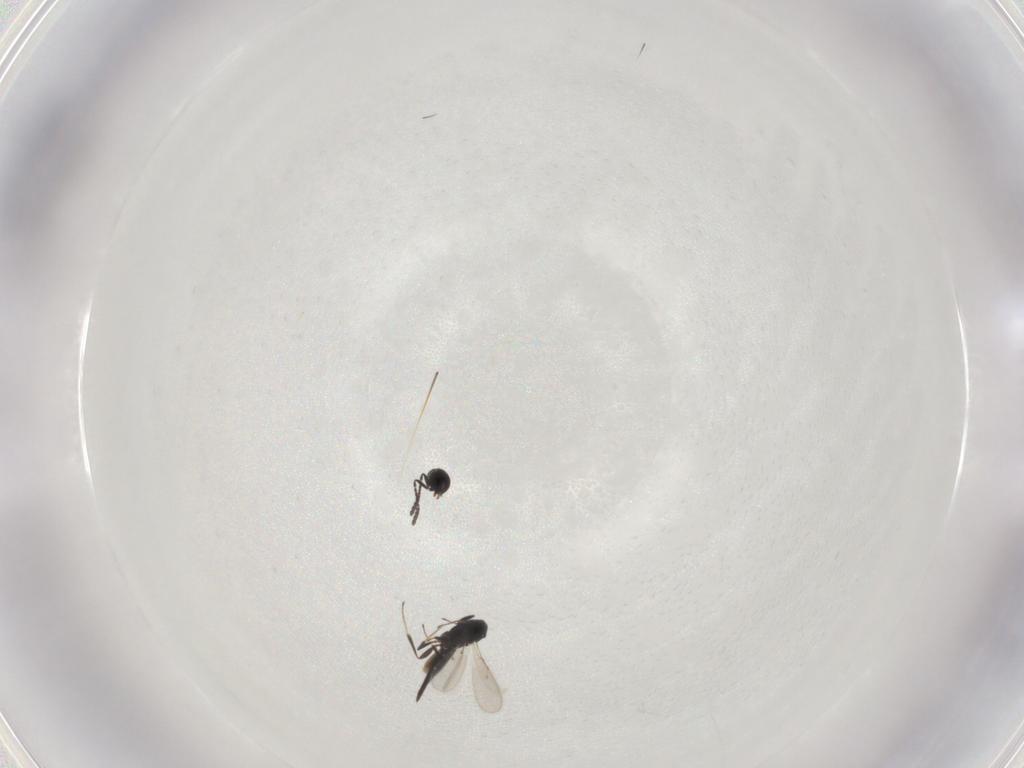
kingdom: Animalia
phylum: Arthropoda
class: Insecta
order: Hymenoptera
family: Scelionidae
